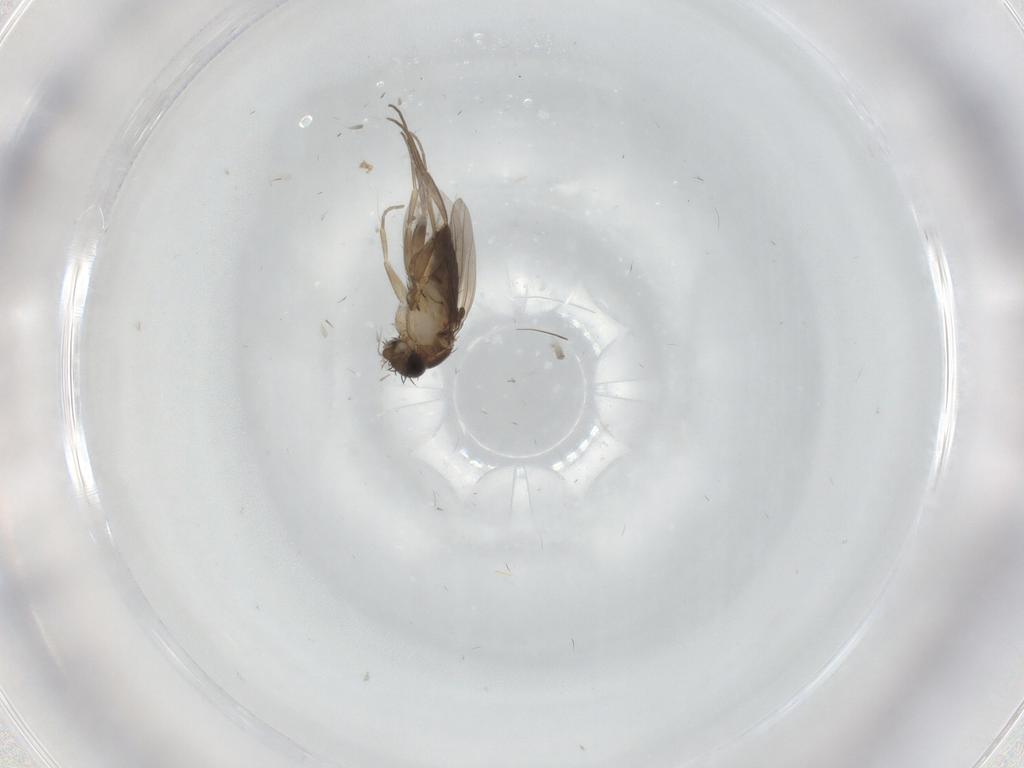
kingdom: Animalia
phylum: Arthropoda
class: Insecta
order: Diptera
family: Phoridae
